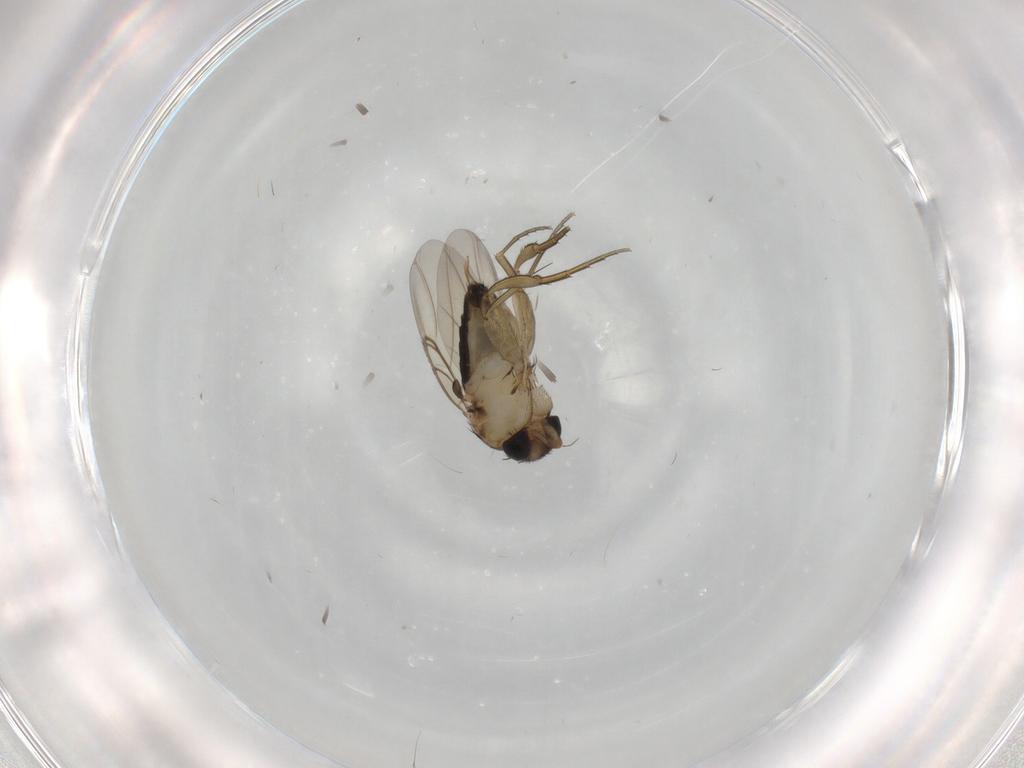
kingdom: Animalia
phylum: Arthropoda
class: Insecta
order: Diptera
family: Phoridae
